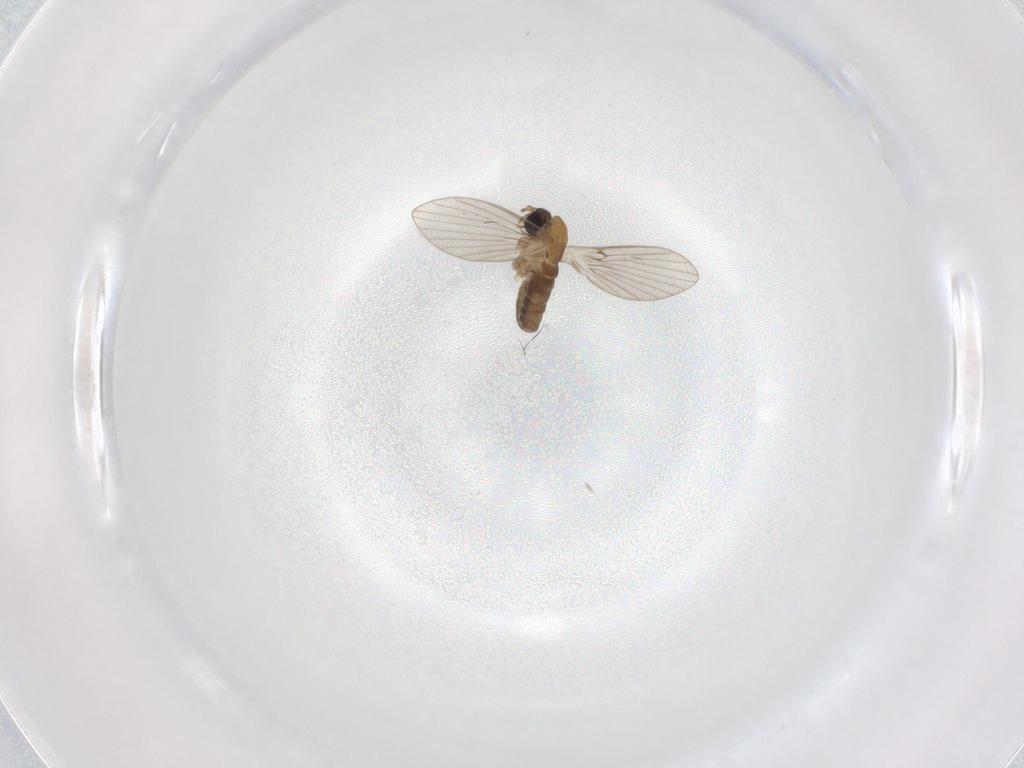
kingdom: Animalia
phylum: Arthropoda
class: Insecta
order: Diptera
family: Psychodidae
